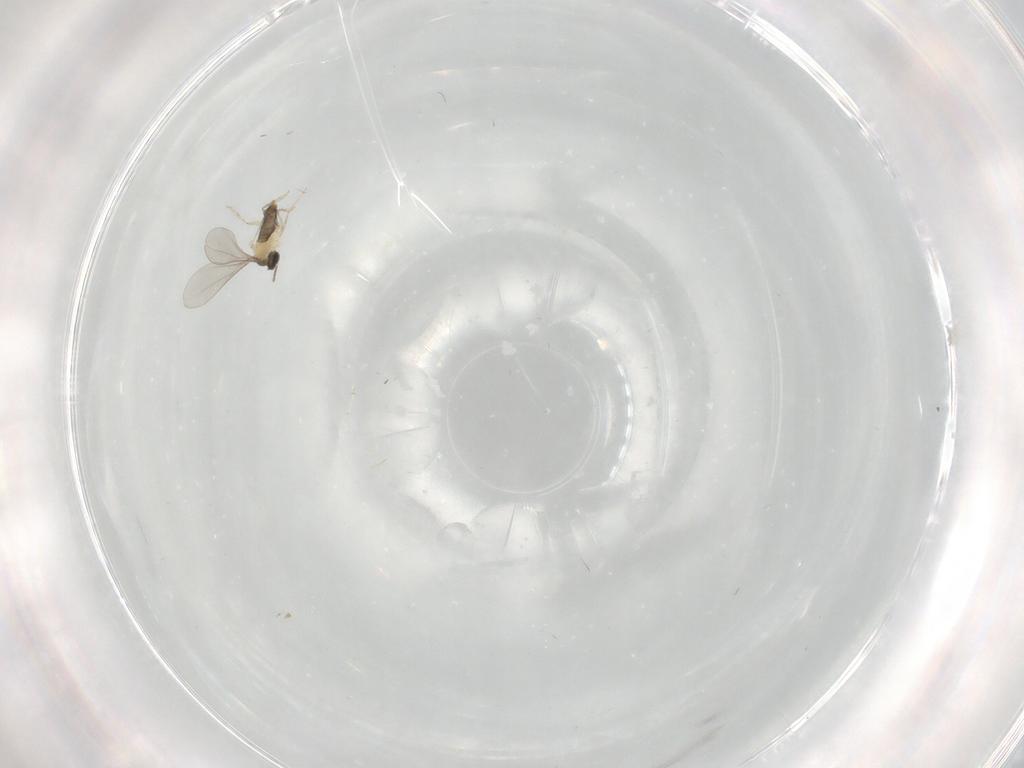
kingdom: Animalia
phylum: Arthropoda
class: Insecta
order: Diptera
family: Cecidomyiidae
